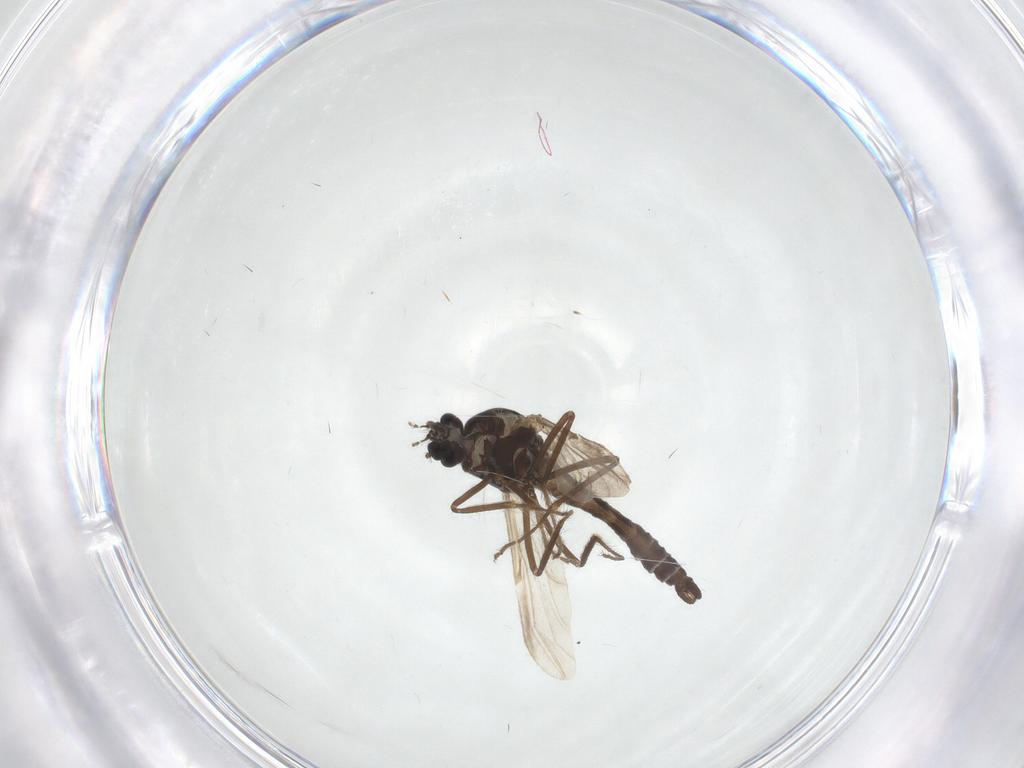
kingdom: Animalia
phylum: Arthropoda
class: Insecta
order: Diptera
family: Ceratopogonidae
